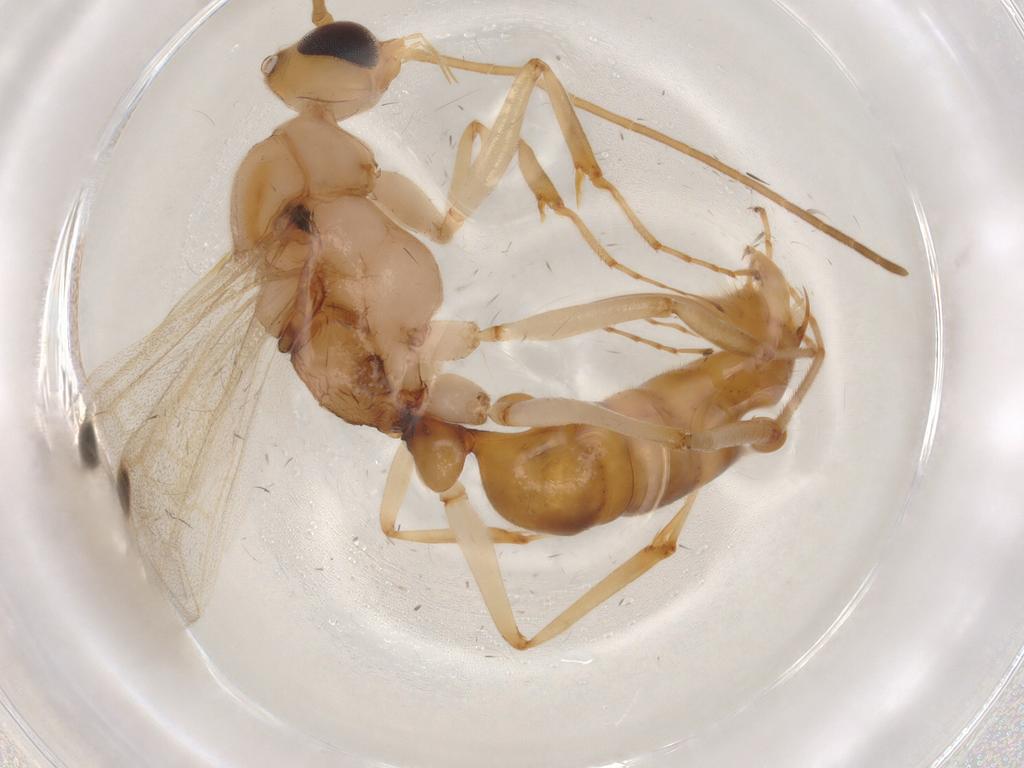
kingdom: Animalia
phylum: Arthropoda
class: Insecta
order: Hymenoptera
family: Formicidae
